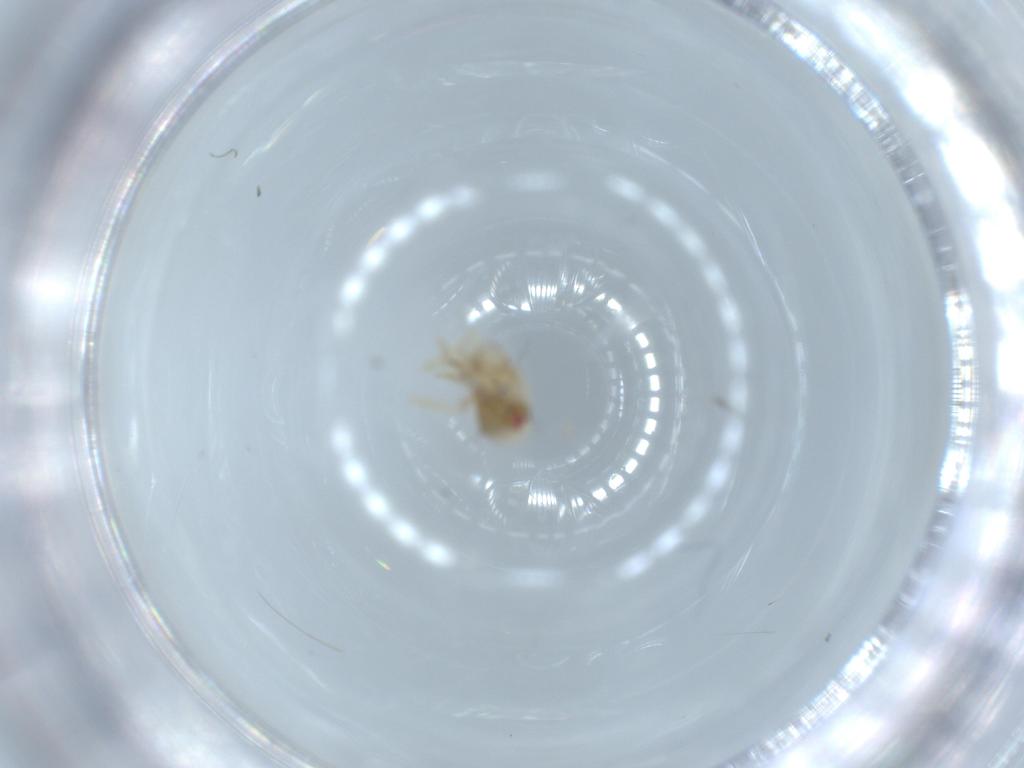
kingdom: Animalia
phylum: Arthropoda
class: Insecta
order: Hemiptera
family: Acanaloniidae
